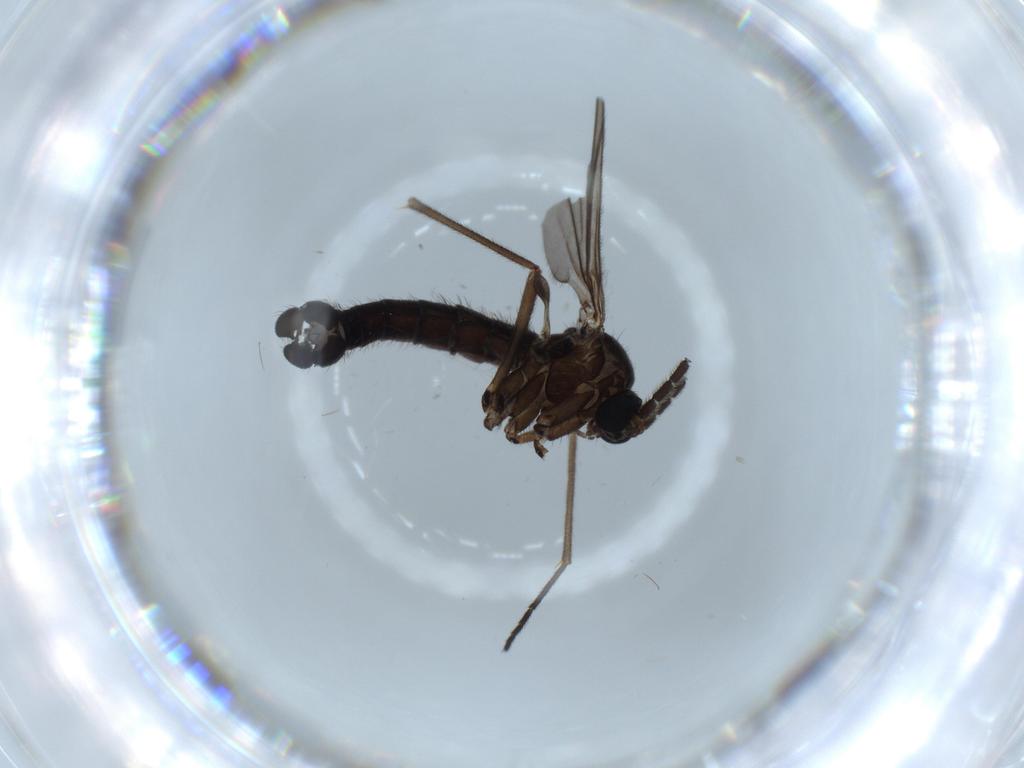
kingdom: Animalia
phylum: Arthropoda
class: Insecta
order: Diptera
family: Sciaridae
